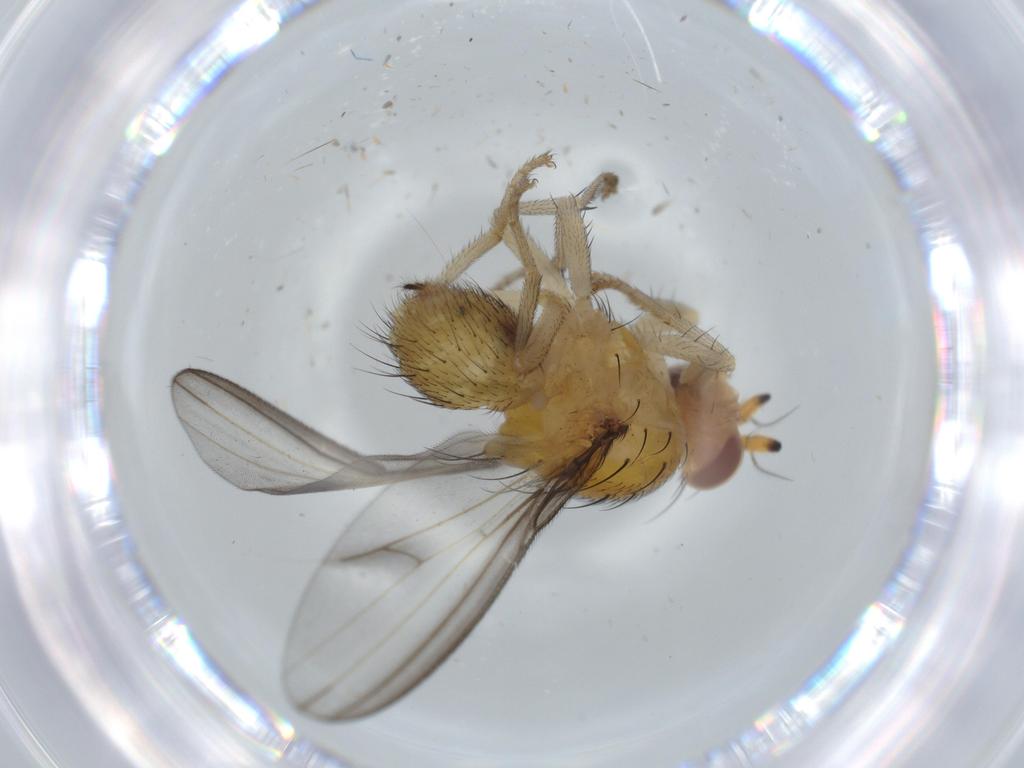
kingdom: Animalia
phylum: Arthropoda
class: Insecta
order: Diptera
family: Lauxaniidae
